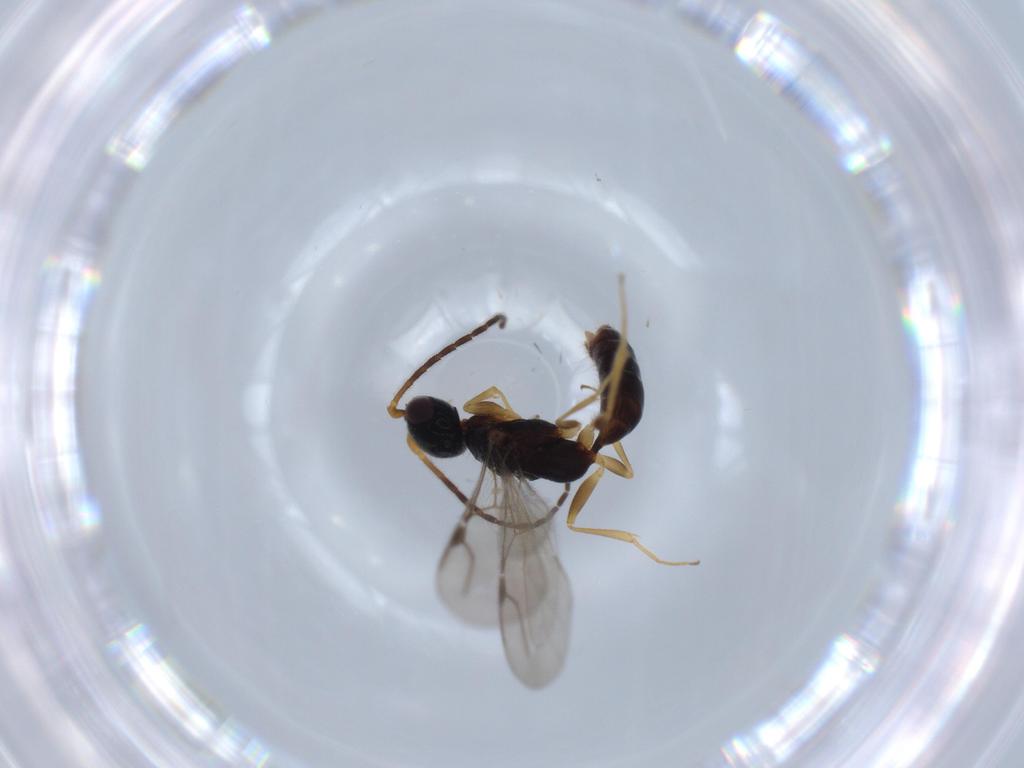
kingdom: Animalia
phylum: Arthropoda
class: Insecta
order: Hymenoptera
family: Bethylidae
